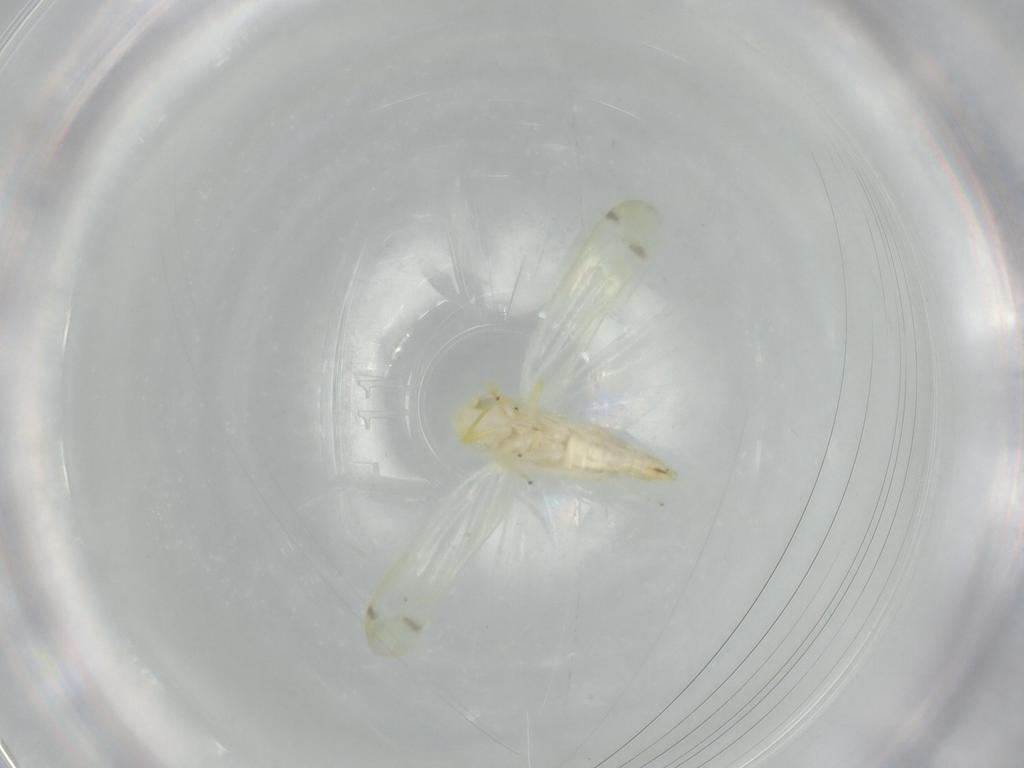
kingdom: Animalia
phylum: Arthropoda
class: Insecta
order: Hemiptera
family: Cicadellidae
